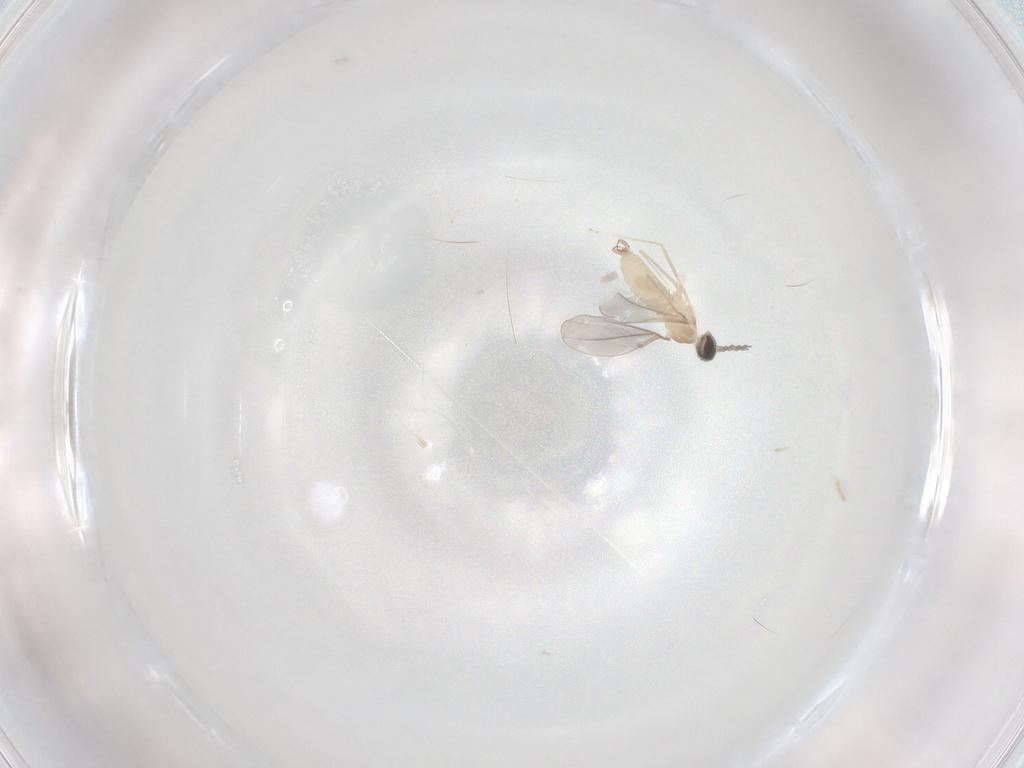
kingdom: Animalia
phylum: Arthropoda
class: Insecta
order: Diptera
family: Cecidomyiidae
